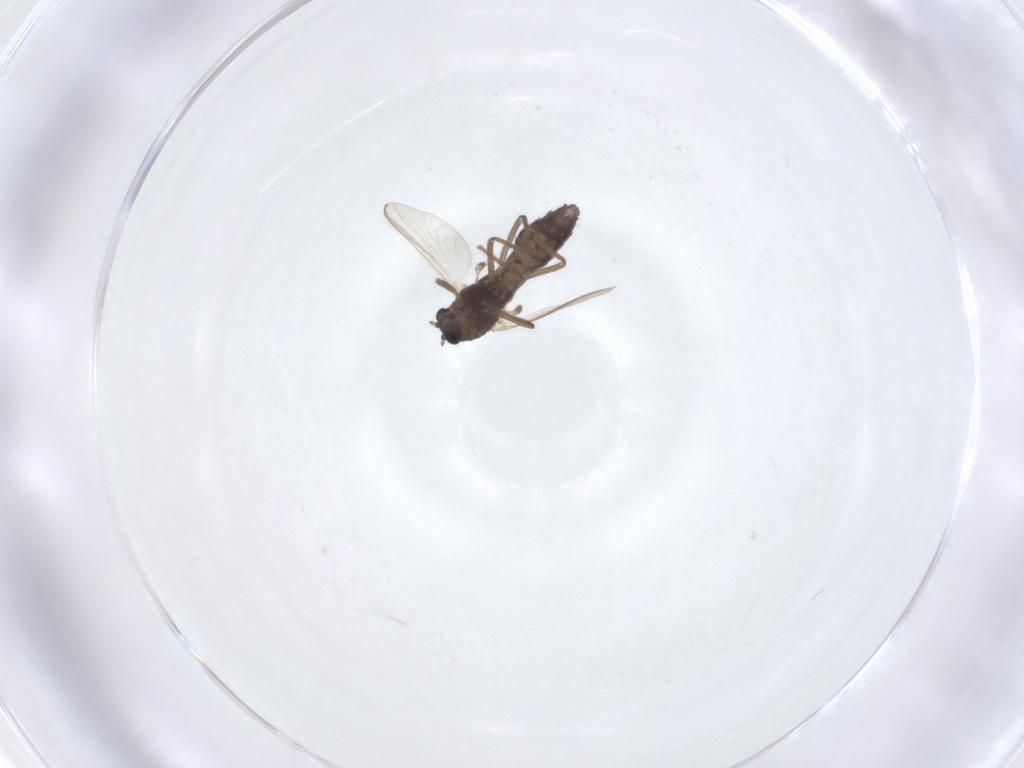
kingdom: Animalia
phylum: Arthropoda
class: Insecta
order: Diptera
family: Chironomidae
